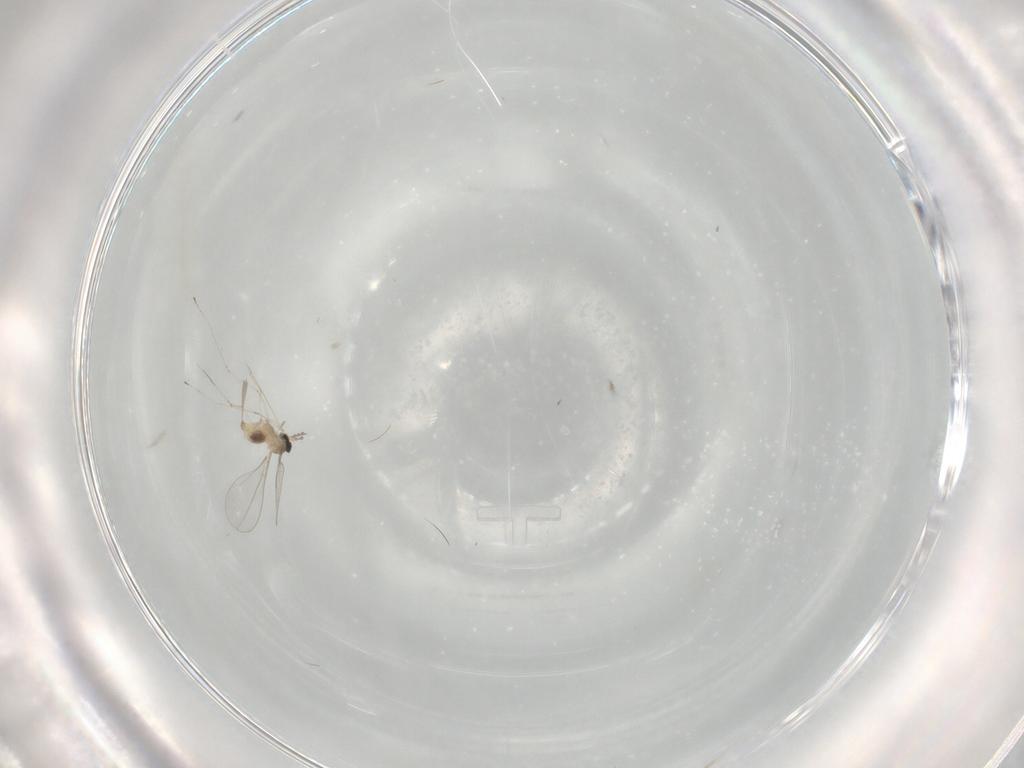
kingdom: Animalia
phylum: Arthropoda
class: Insecta
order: Diptera
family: Cecidomyiidae
